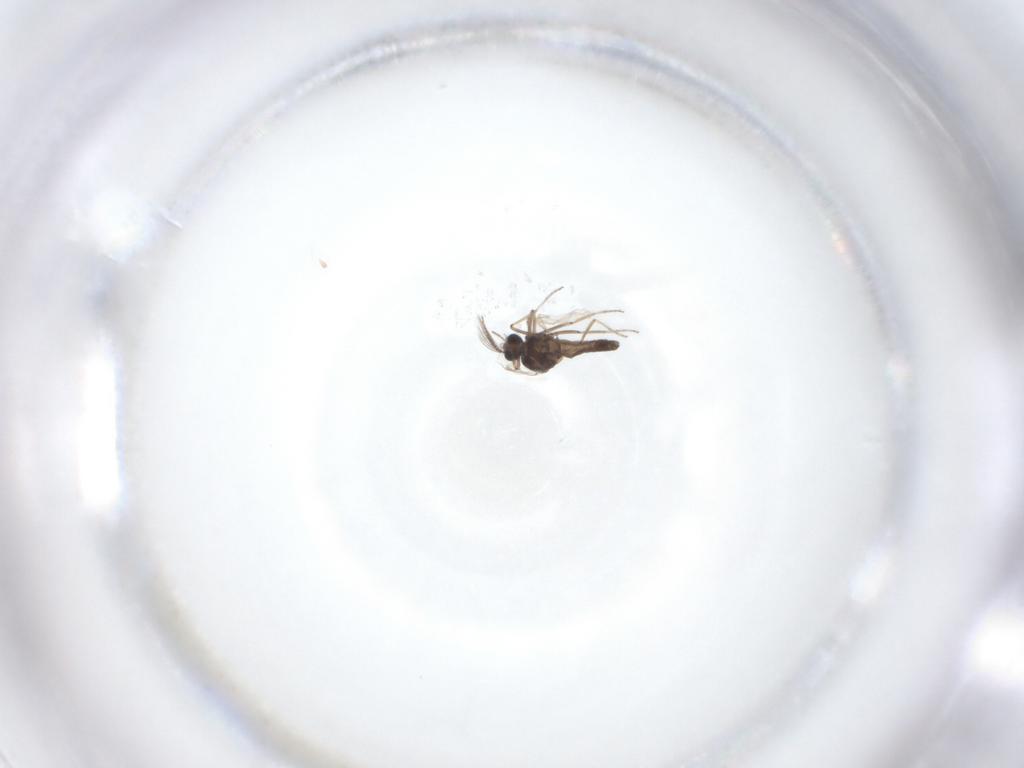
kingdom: Animalia
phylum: Arthropoda
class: Insecta
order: Diptera
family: Ceratopogonidae
